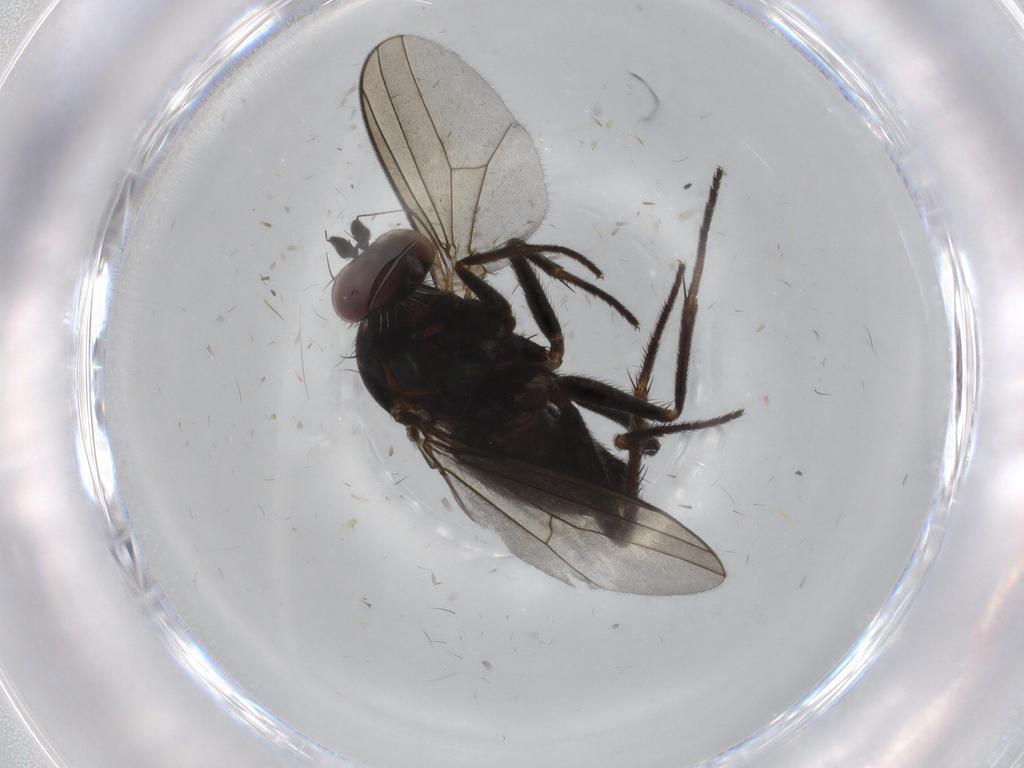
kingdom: Animalia
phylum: Arthropoda
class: Insecta
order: Diptera
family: Dolichopodidae
